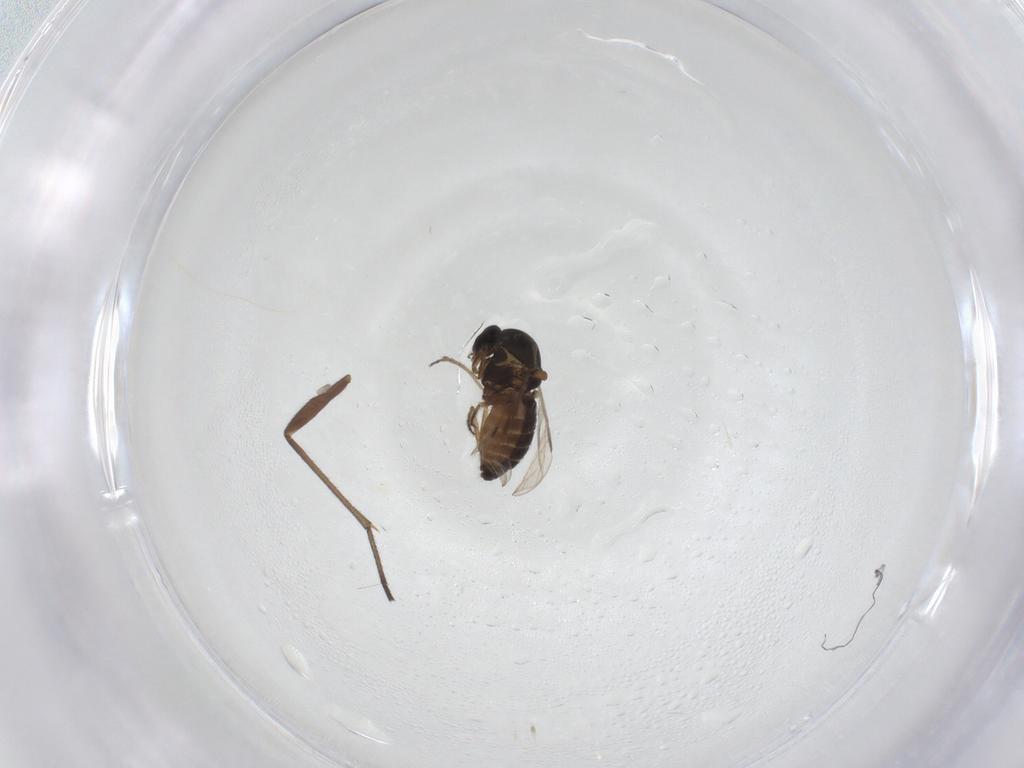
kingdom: Animalia
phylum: Arthropoda
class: Insecta
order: Diptera
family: Ceratopogonidae
